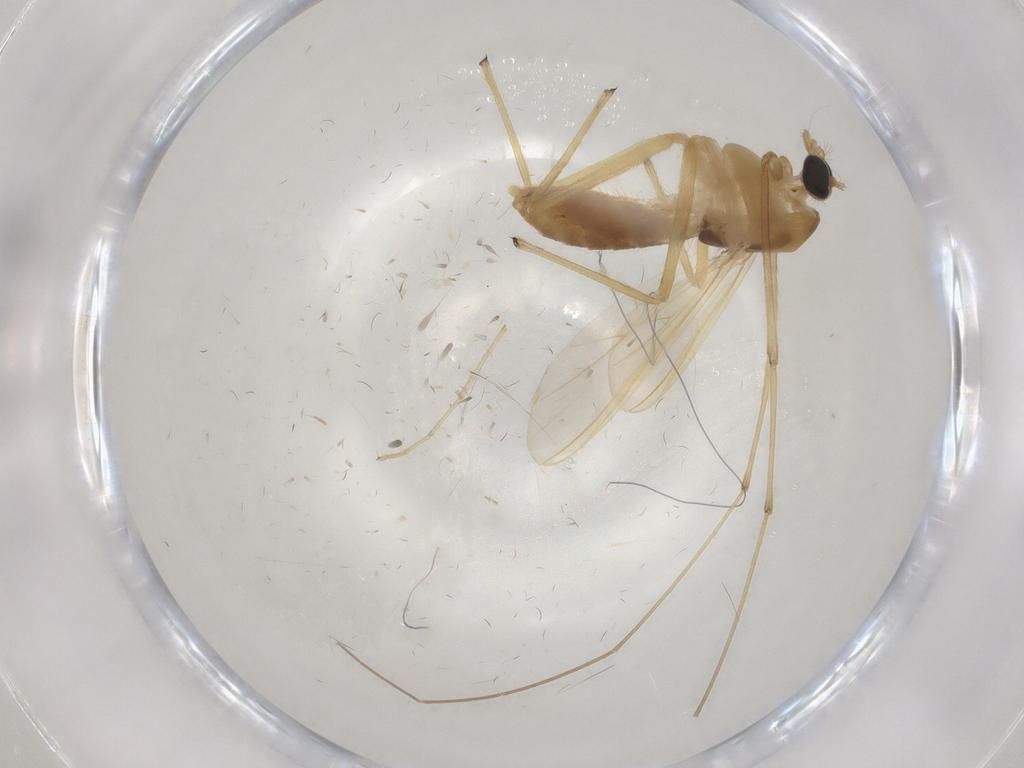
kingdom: Animalia
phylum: Arthropoda
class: Insecta
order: Diptera
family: Chironomidae
